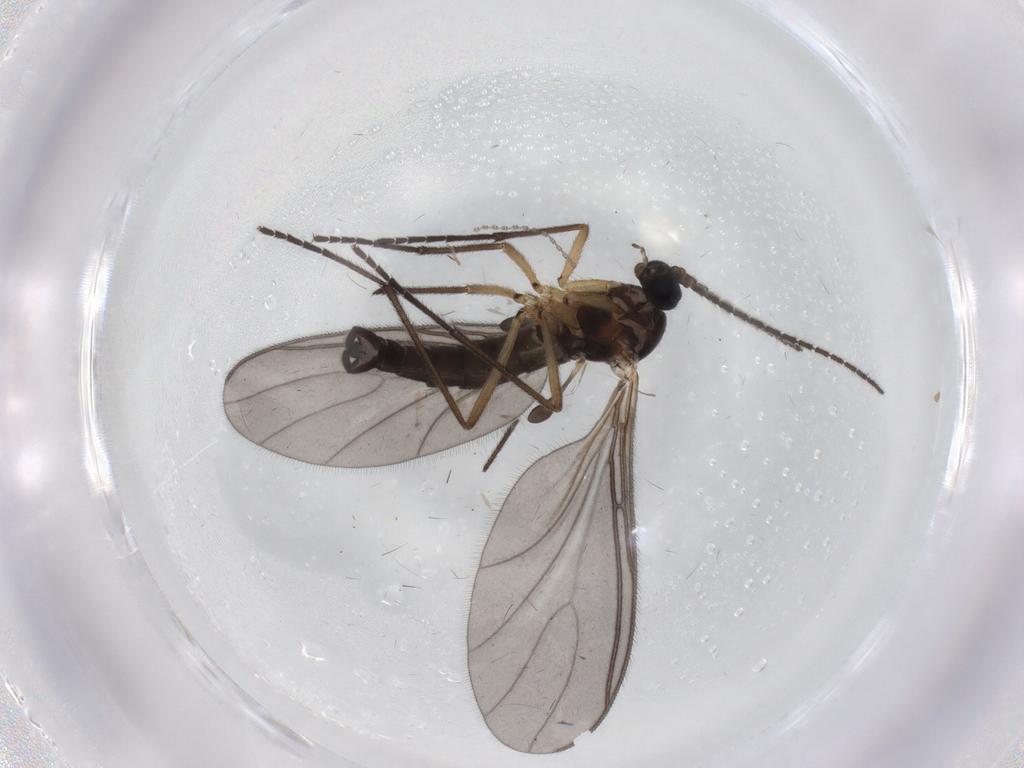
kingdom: Animalia
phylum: Arthropoda
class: Insecta
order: Diptera
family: Sciaridae
